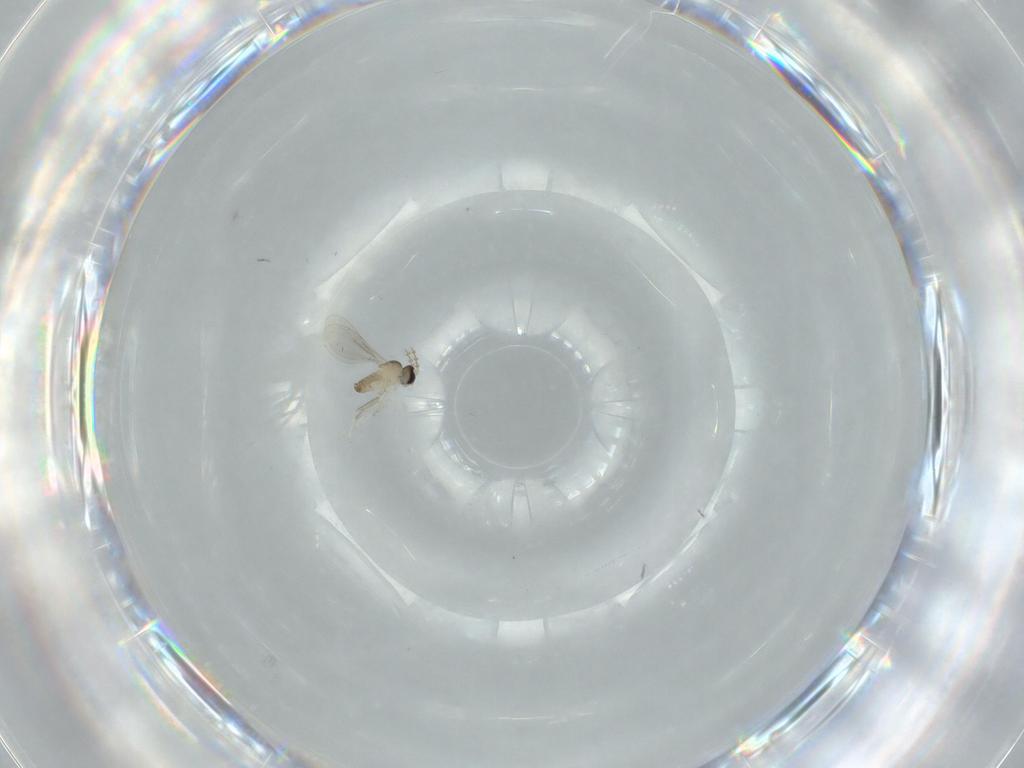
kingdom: Animalia
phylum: Arthropoda
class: Insecta
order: Diptera
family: Cecidomyiidae
